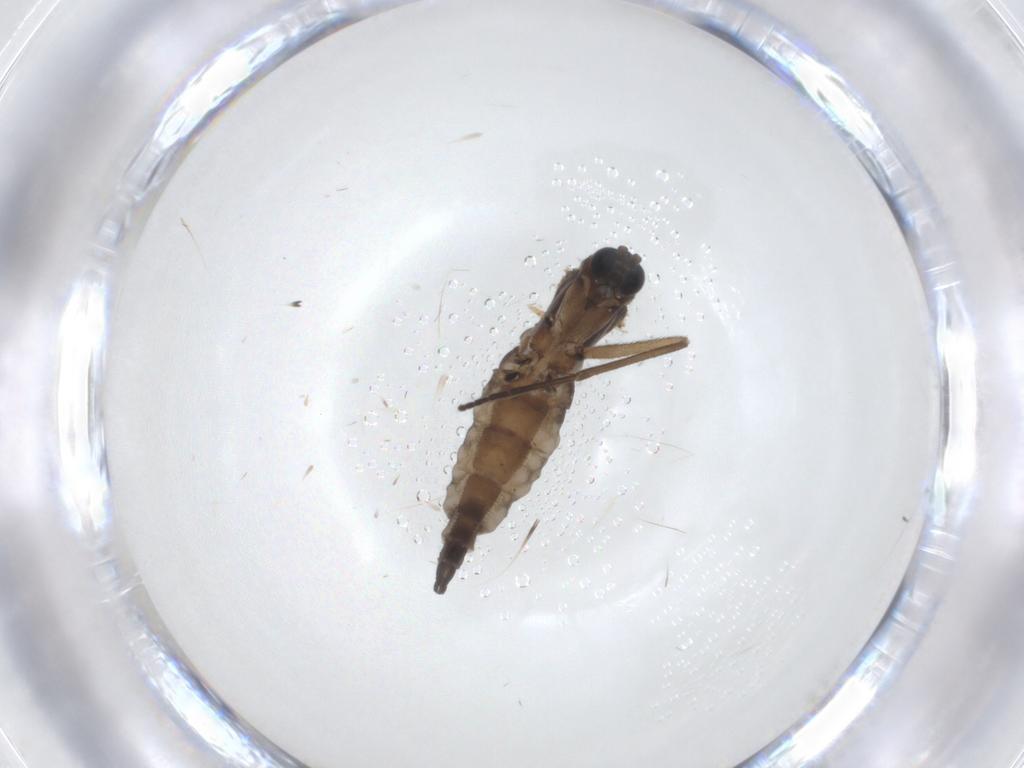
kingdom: Animalia
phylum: Arthropoda
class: Insecta
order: Diptera
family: Sciaridae
